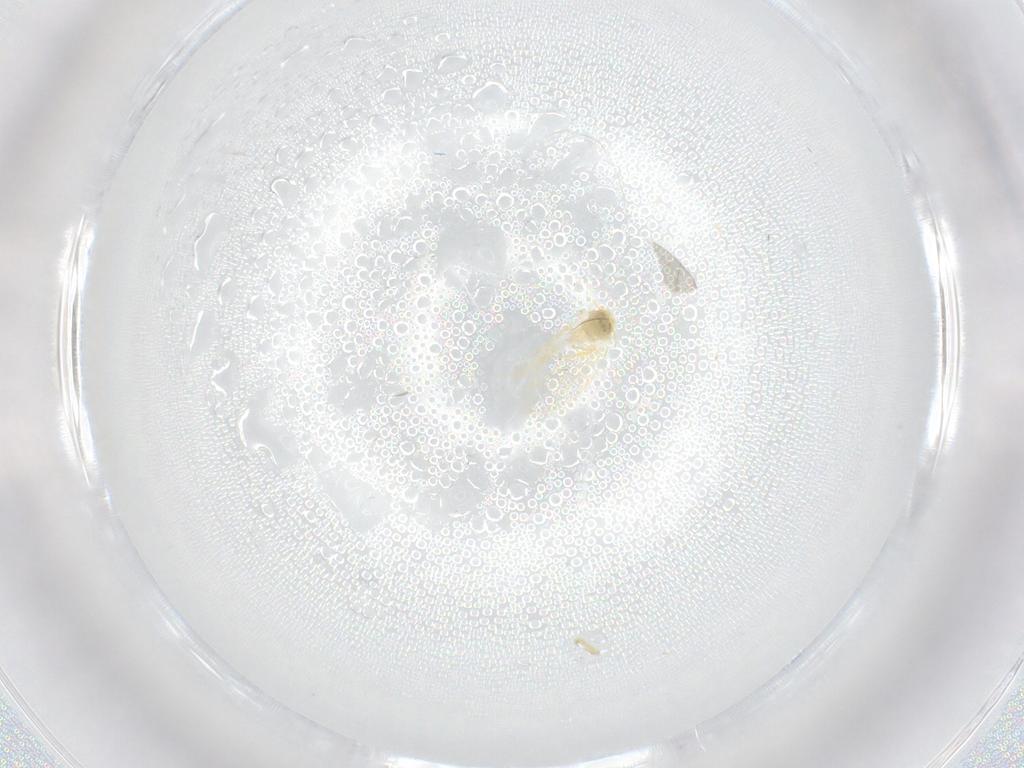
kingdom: Animalia
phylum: Arthropoda
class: Insecta
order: Hemiptera
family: Aleyrodidae
